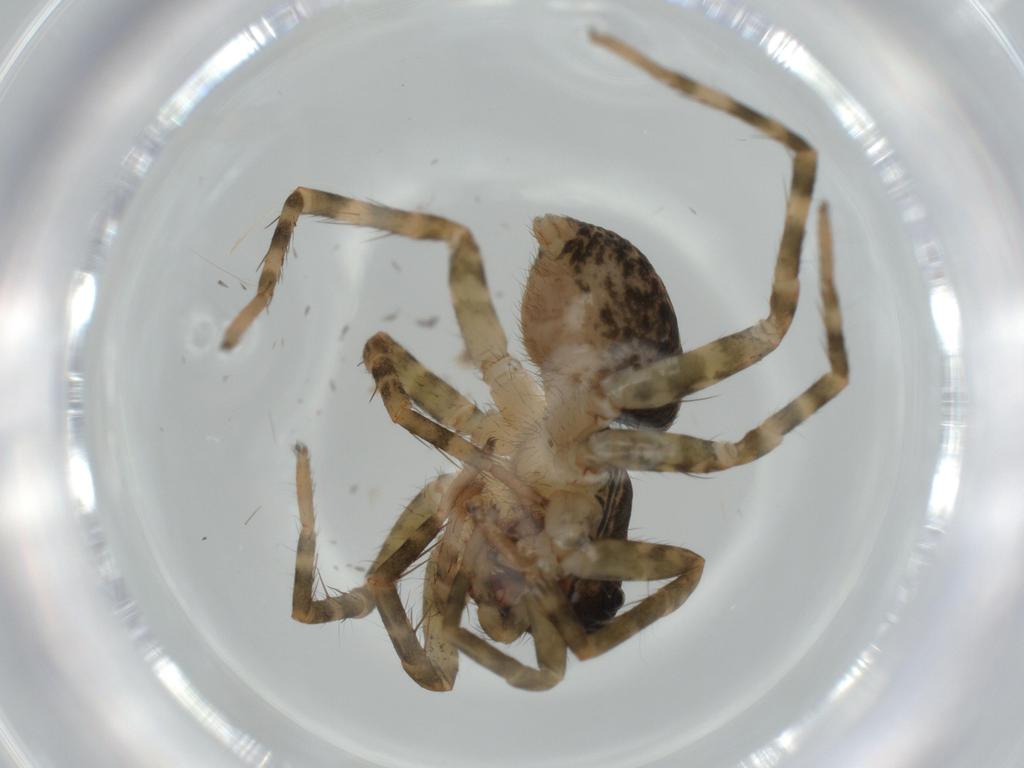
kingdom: Animalia
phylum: Arthropoda
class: Arachnida
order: Araneae
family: Lycosidae
